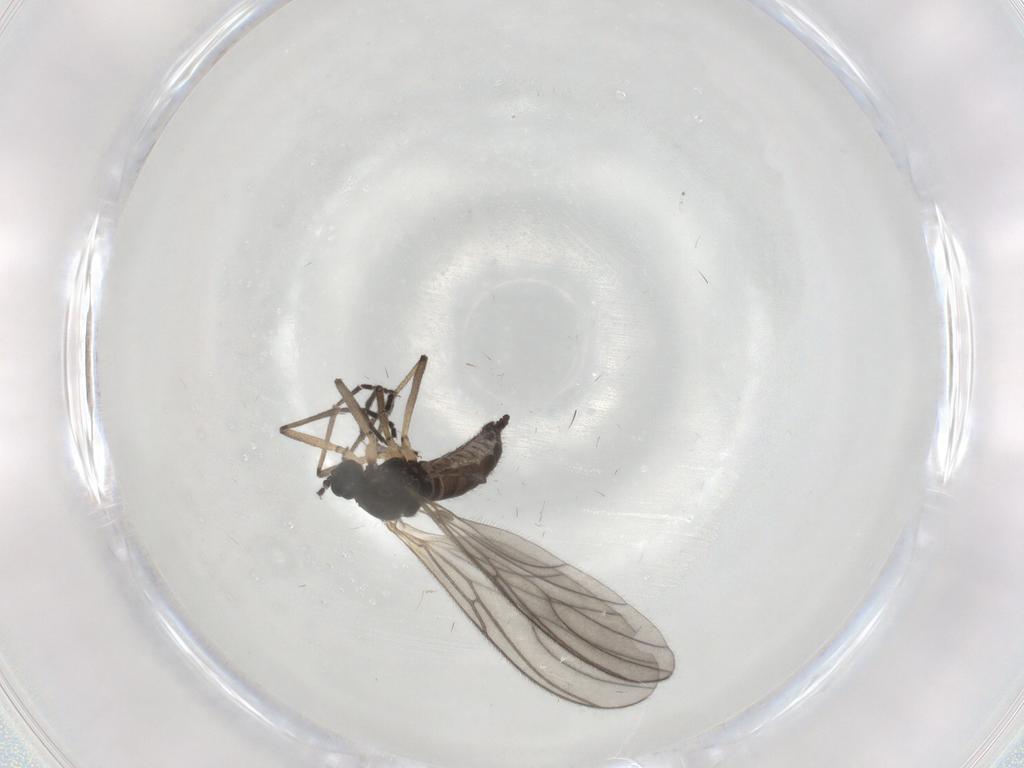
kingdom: Animalia
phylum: Arthropoda
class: Insecta
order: Diptera
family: Sciaridae
